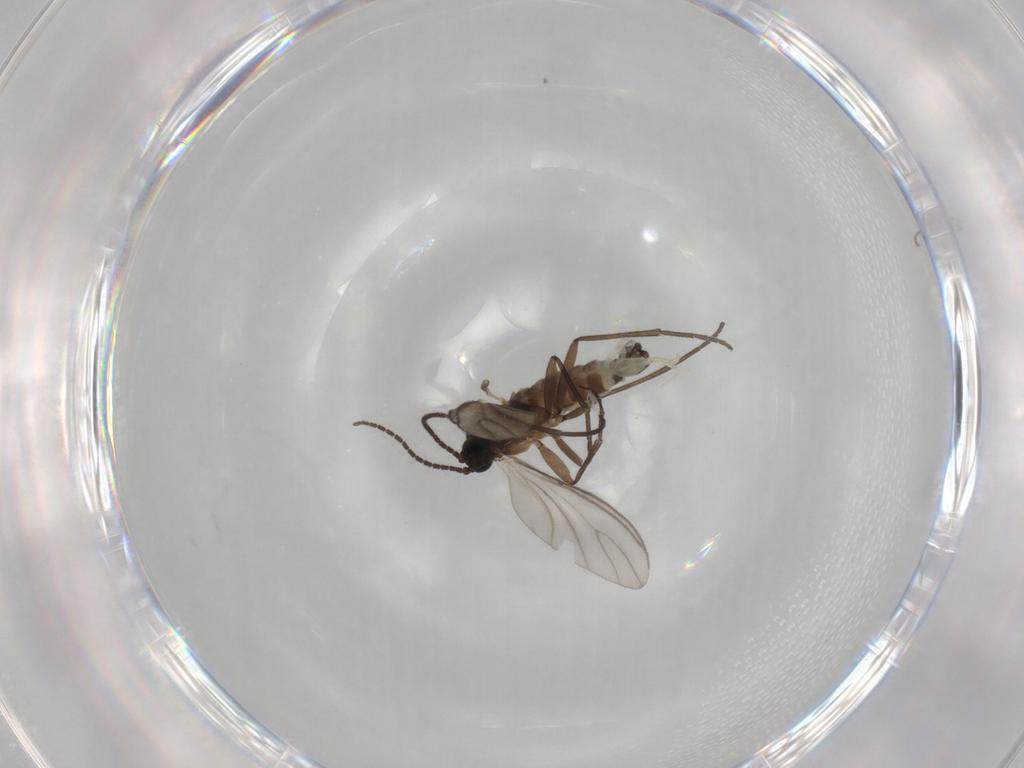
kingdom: Animalia
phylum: Arthropoda
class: Insecta
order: Diptera
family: Sciaridae
